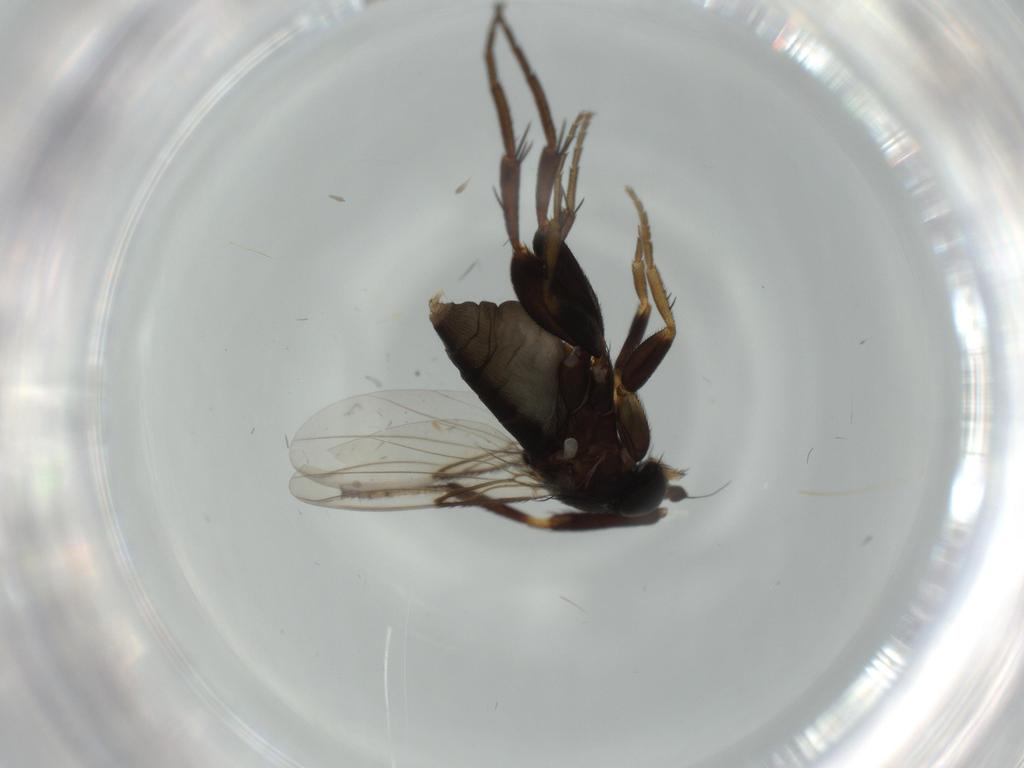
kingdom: Animalia
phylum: Arthropoda
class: Insecta
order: Diptera
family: Phoridae
